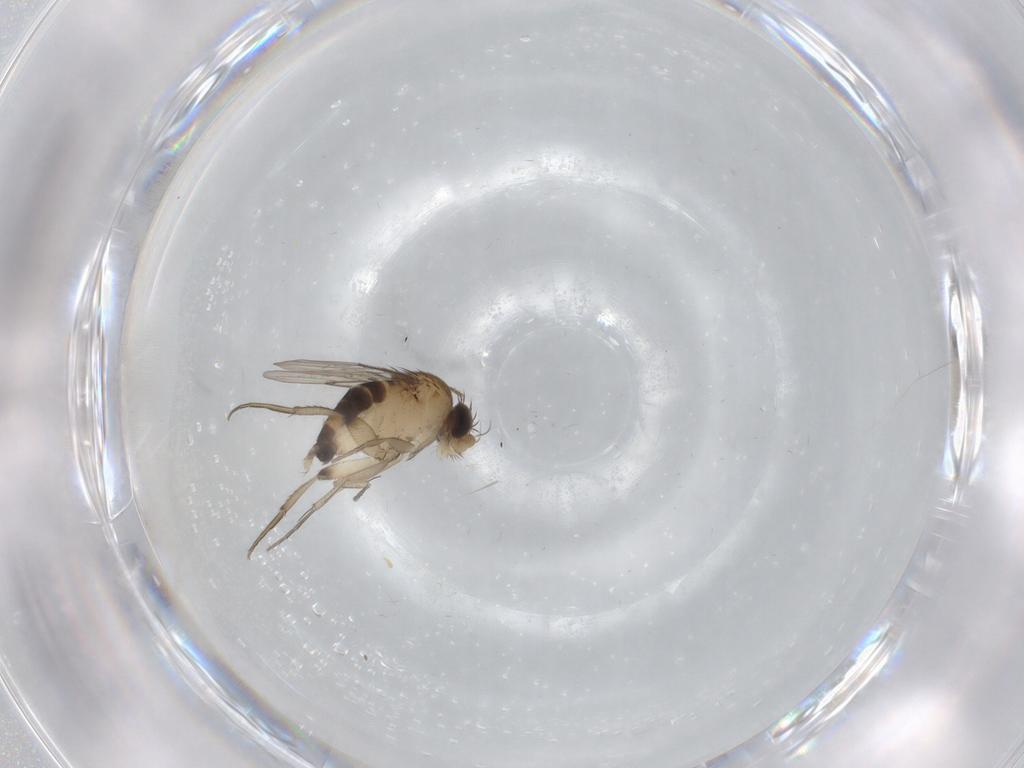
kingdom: Animalia
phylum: Arthropoda
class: Insecta
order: Diptera
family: Phoridae
